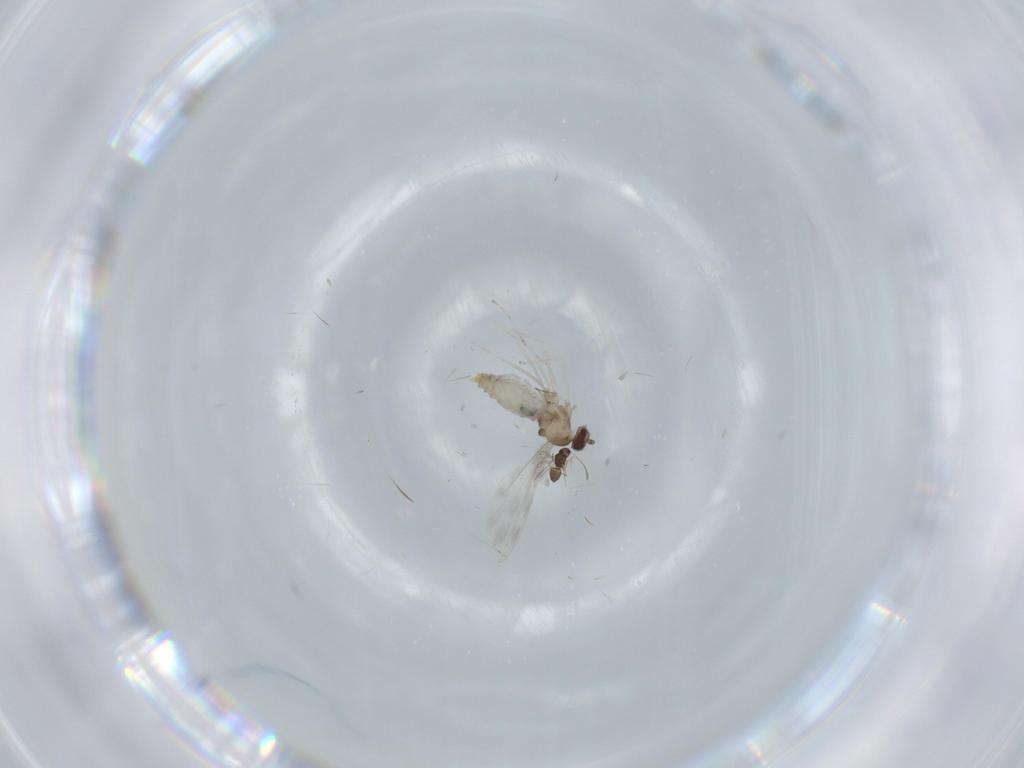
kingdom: Animalia
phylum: Arthropoda
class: Insecta
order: Diptera
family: Cecidomyiidae
